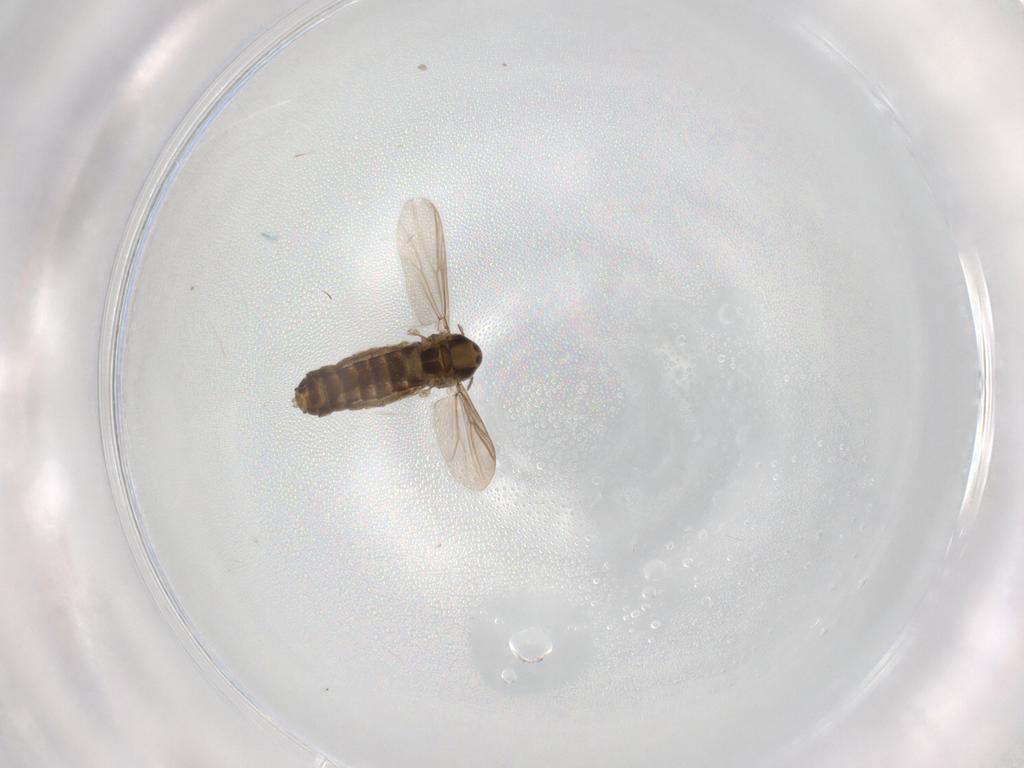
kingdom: Animalia
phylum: Arthropoda
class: Insecta
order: Diptera
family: Chironomidae
